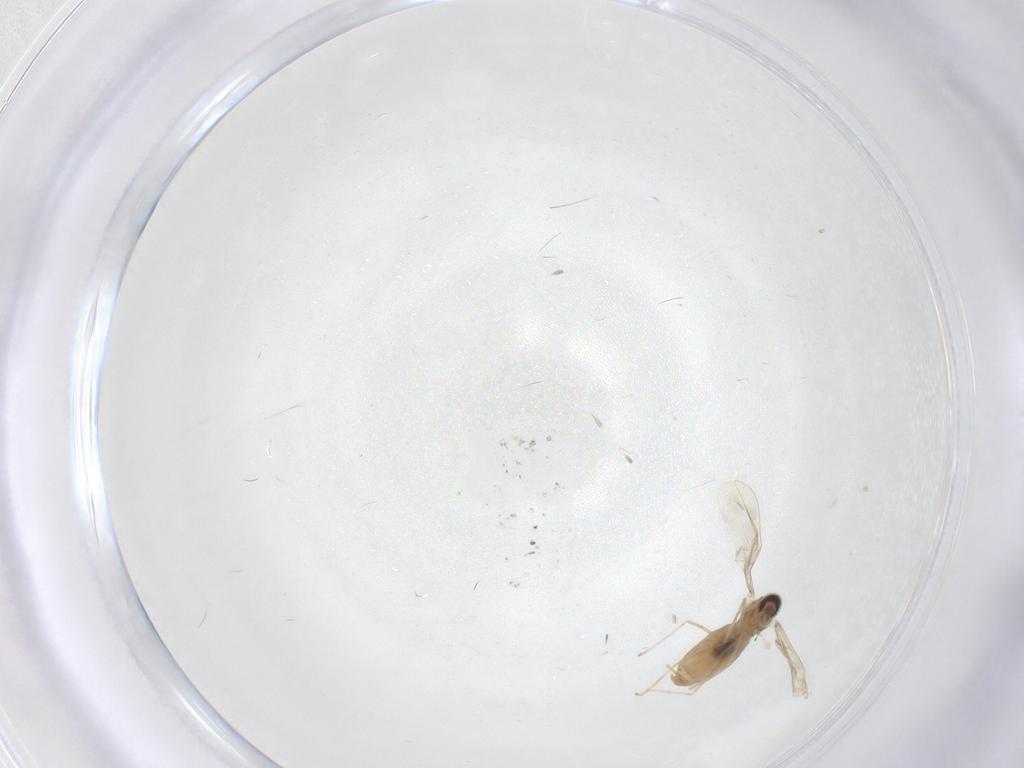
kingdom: Animalia
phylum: Arthropoda
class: Insecta
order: Diptera
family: Cecidomyiidae
